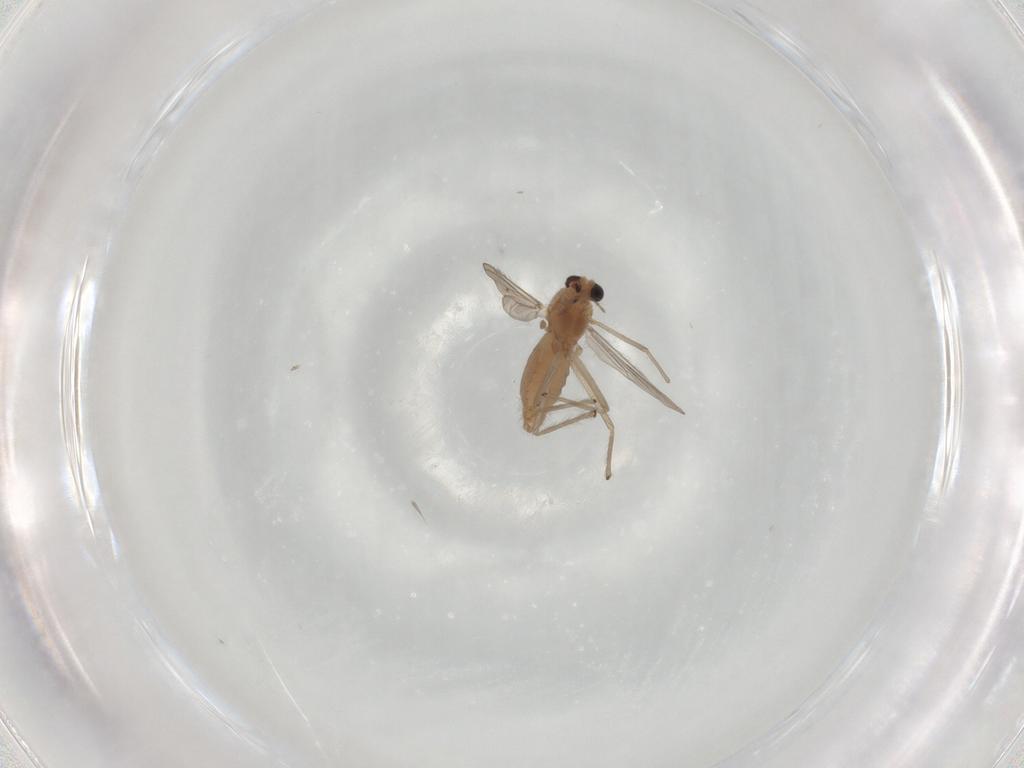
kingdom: Animalia
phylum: Arthropoda
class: Insecta
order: Diptera
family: Chironomidae
